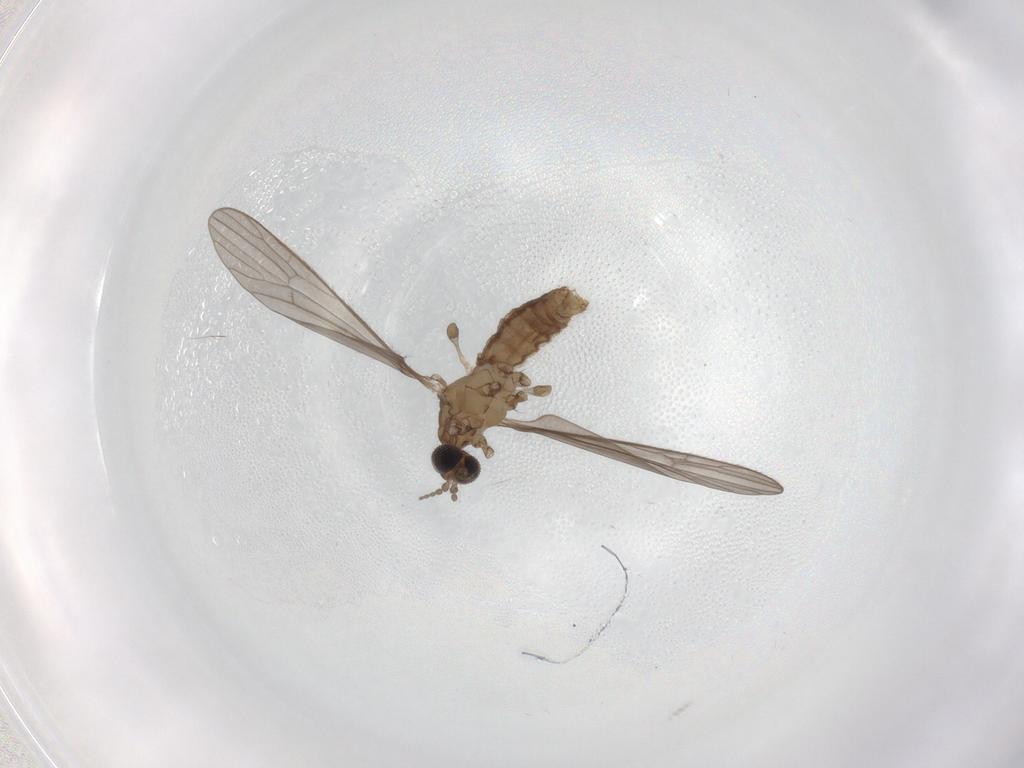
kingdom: Animalia
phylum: Arthropoda
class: Insecta
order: Diptera
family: Limoniidae
